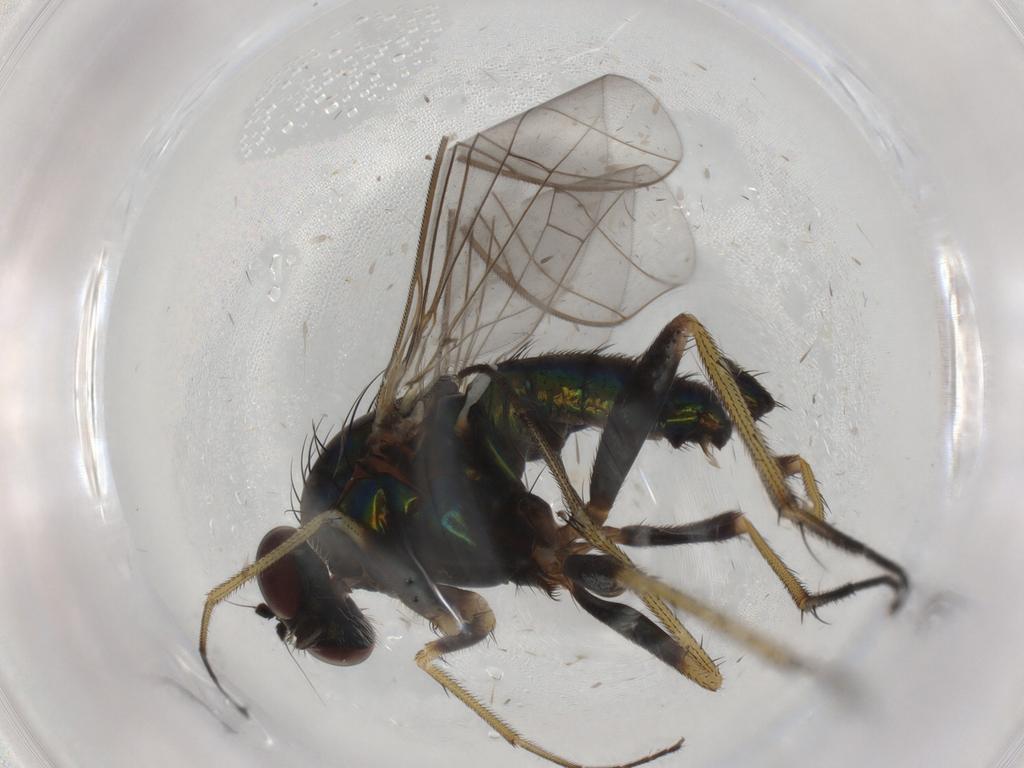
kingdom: Animalia
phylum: Arthropoda
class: Insecta
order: Diptera
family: Dolichopodidae
